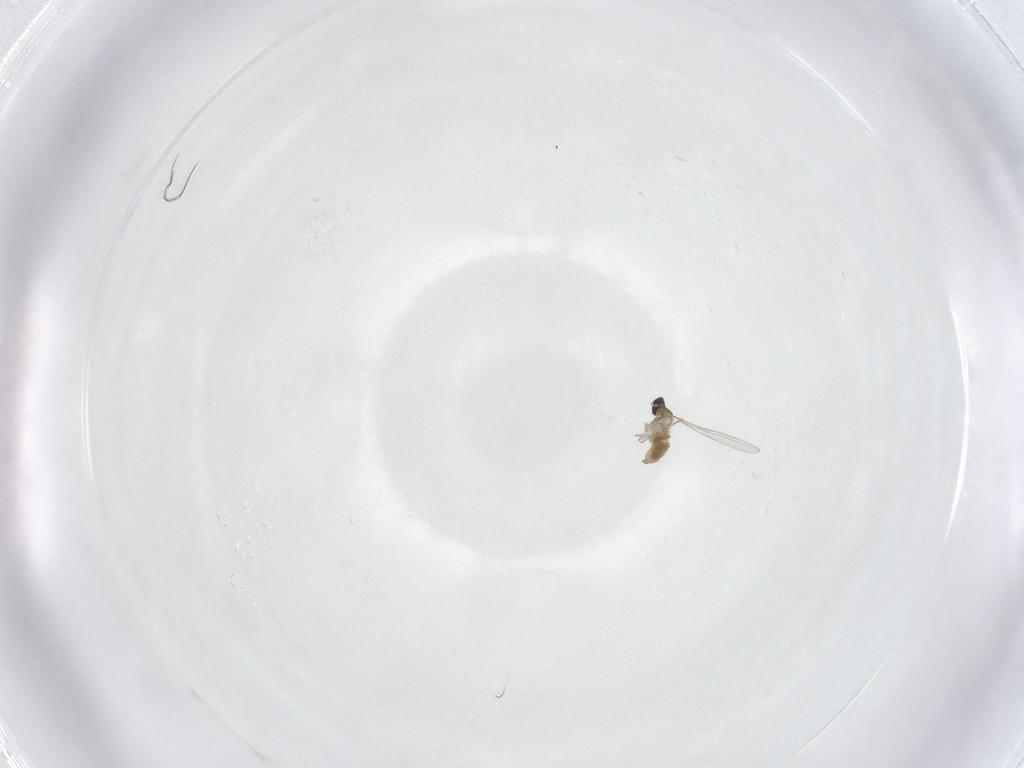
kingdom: Animalia
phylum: Arthropoda
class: Insecta
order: Diptera
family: Cecidomyiidae
